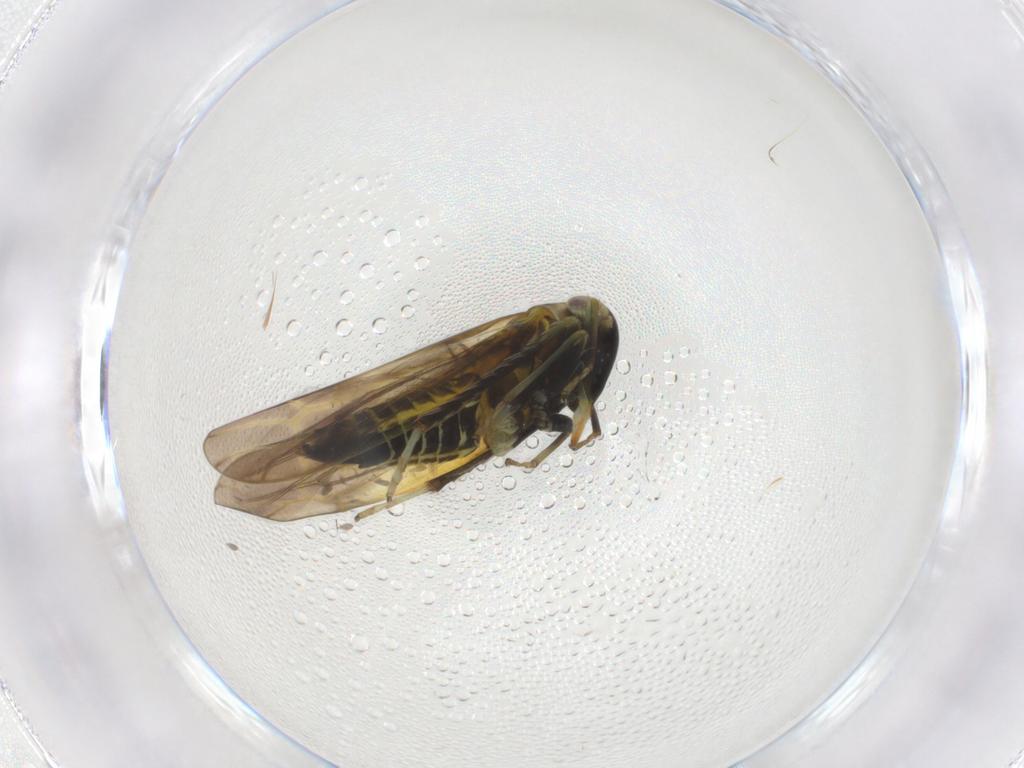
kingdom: Animalia
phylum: Arthropoda
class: Insecta
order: Hemiptera
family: Cicadellidae
